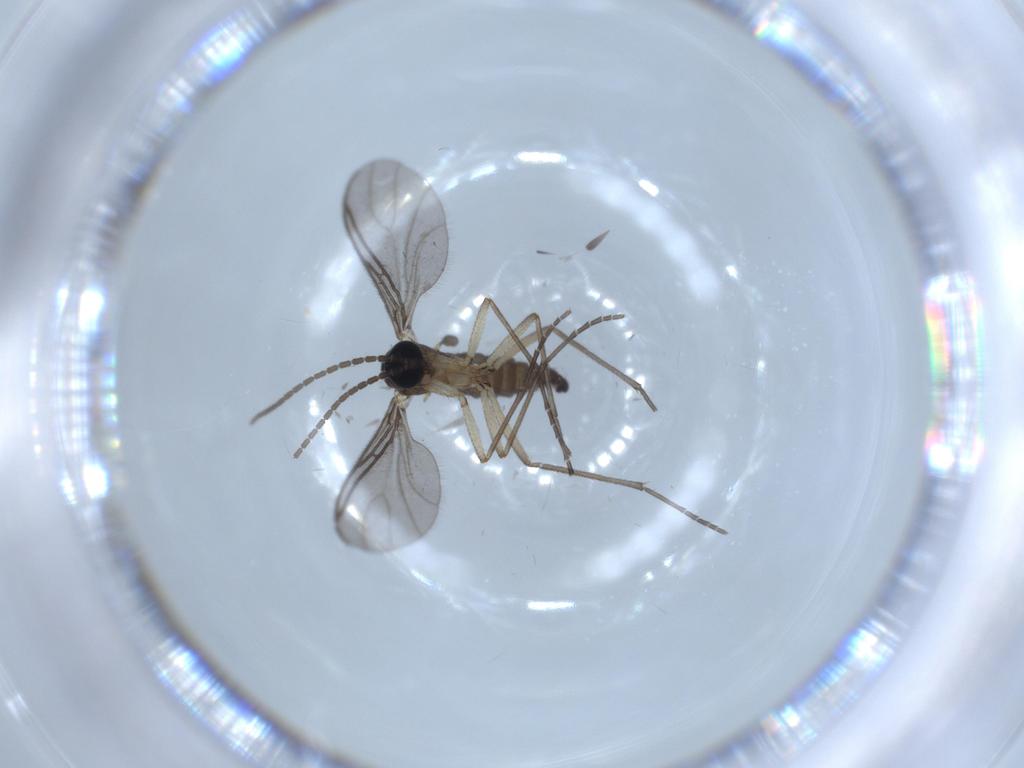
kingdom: Animalia
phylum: Arthropoda
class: Insecta
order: Diptera
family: Sciaridae
